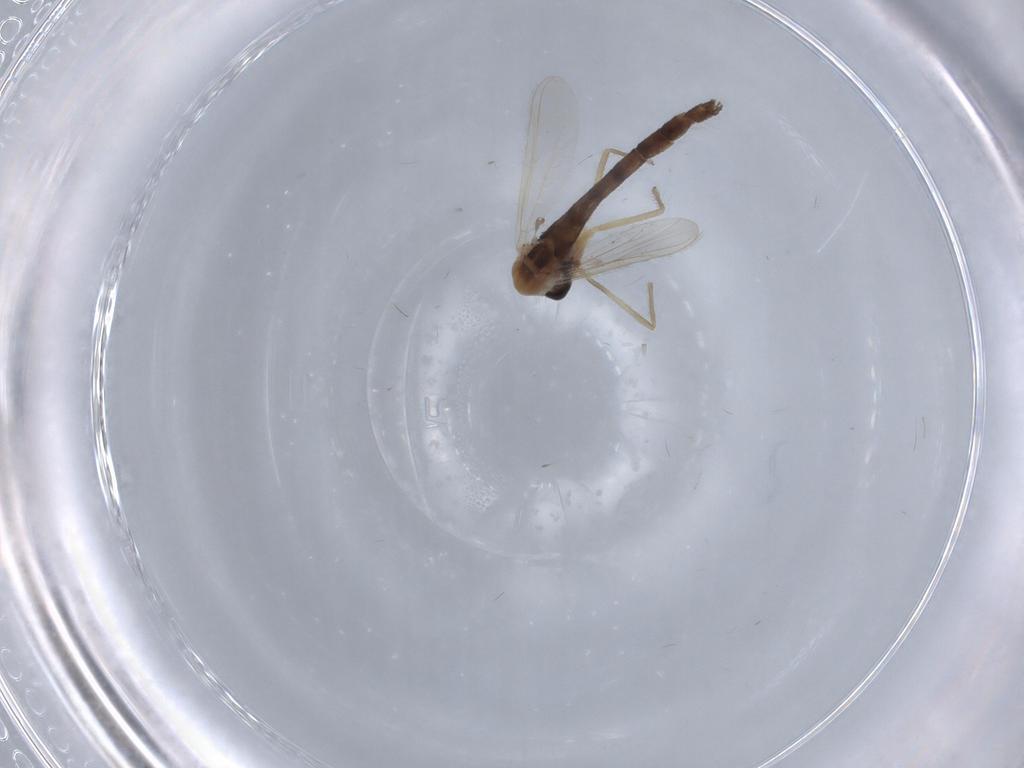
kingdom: Animalia
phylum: Arthropoda
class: Insecta
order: Diptera
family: Chironomidae
